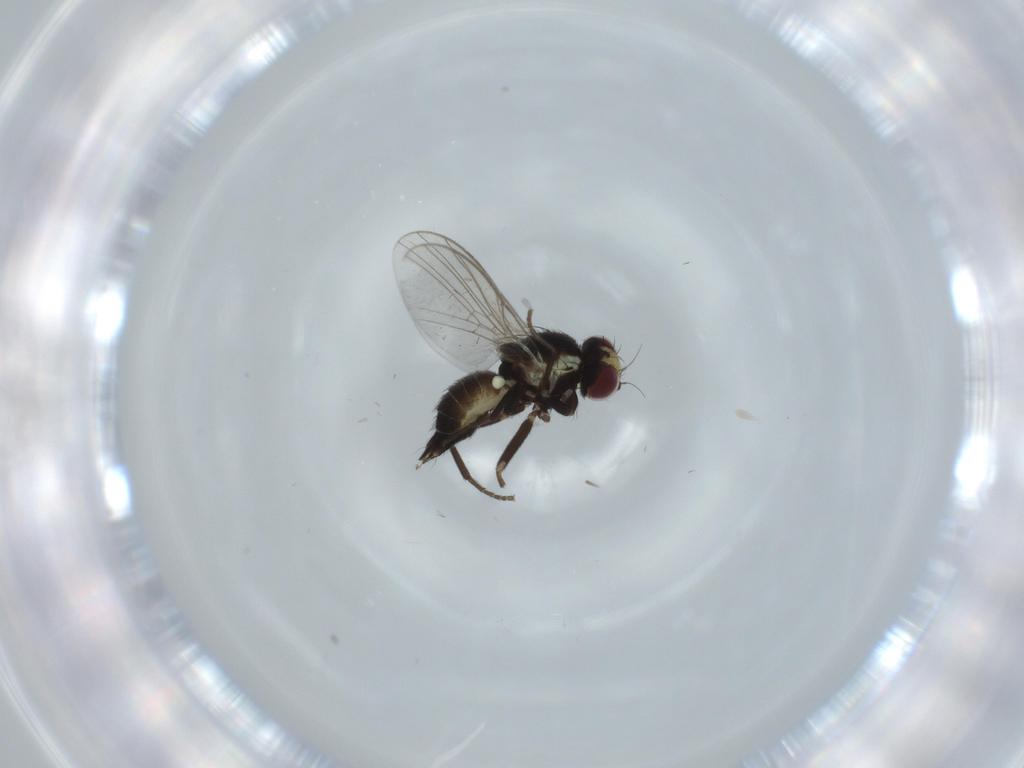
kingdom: Animalia
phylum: Arthropoda
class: Insecta
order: Diptera
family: Agromyzidae
